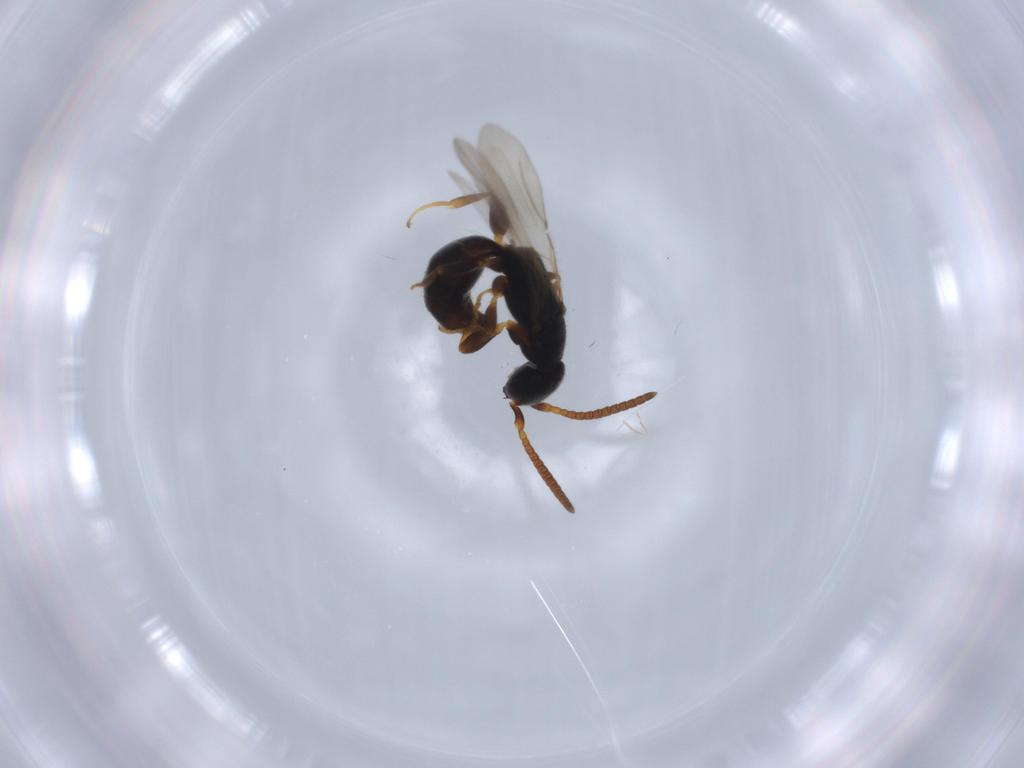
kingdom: Animalia
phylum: Arthropoda
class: Insecta
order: Hymenoptera
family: Bethylidae
